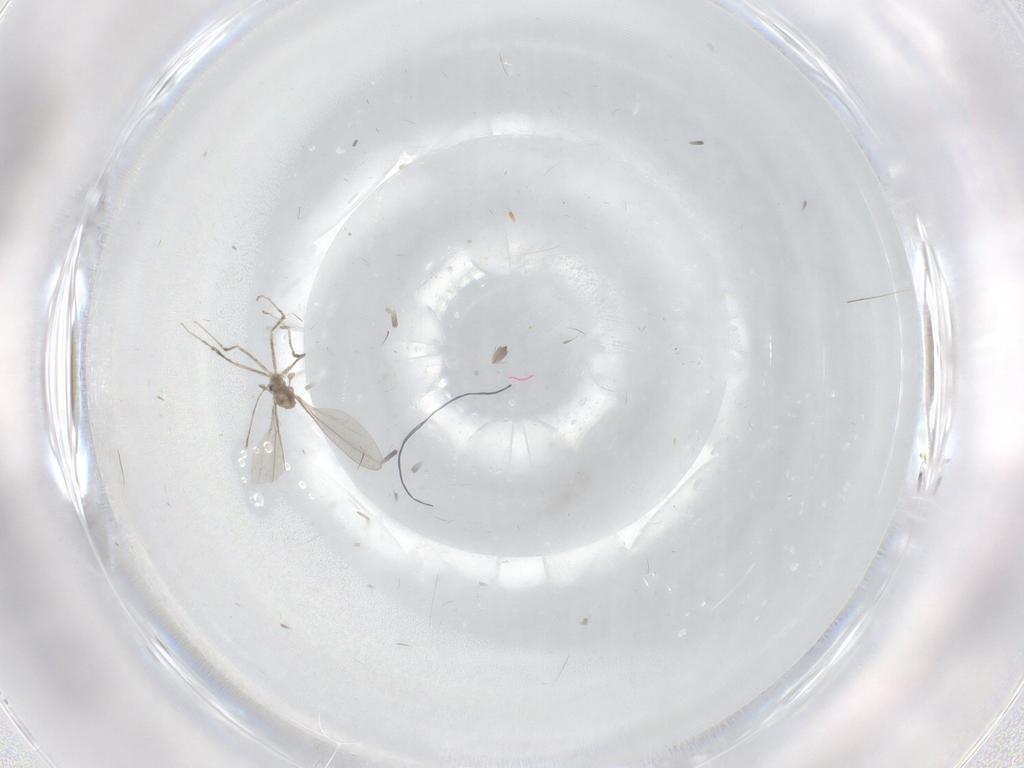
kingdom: Animalia
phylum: Arthropoda
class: Insecta
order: Diptera
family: Cecidomyiidae
